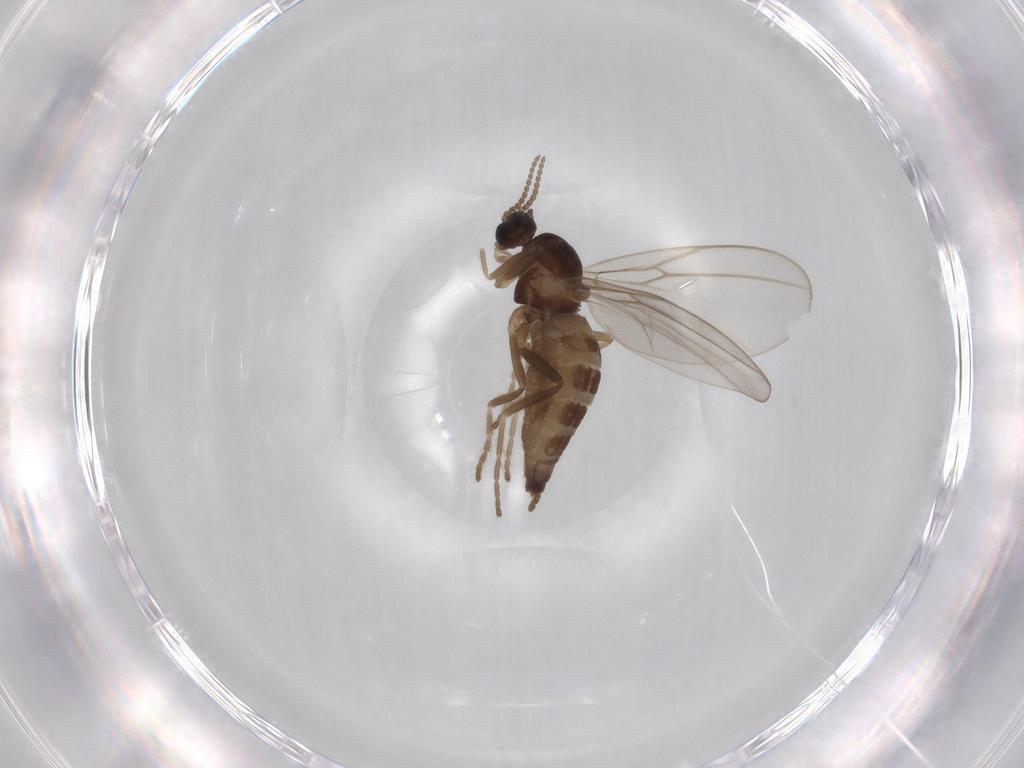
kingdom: Animalia
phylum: Arthropoda
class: Insecta
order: Diptera
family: Cecidomyiidae
